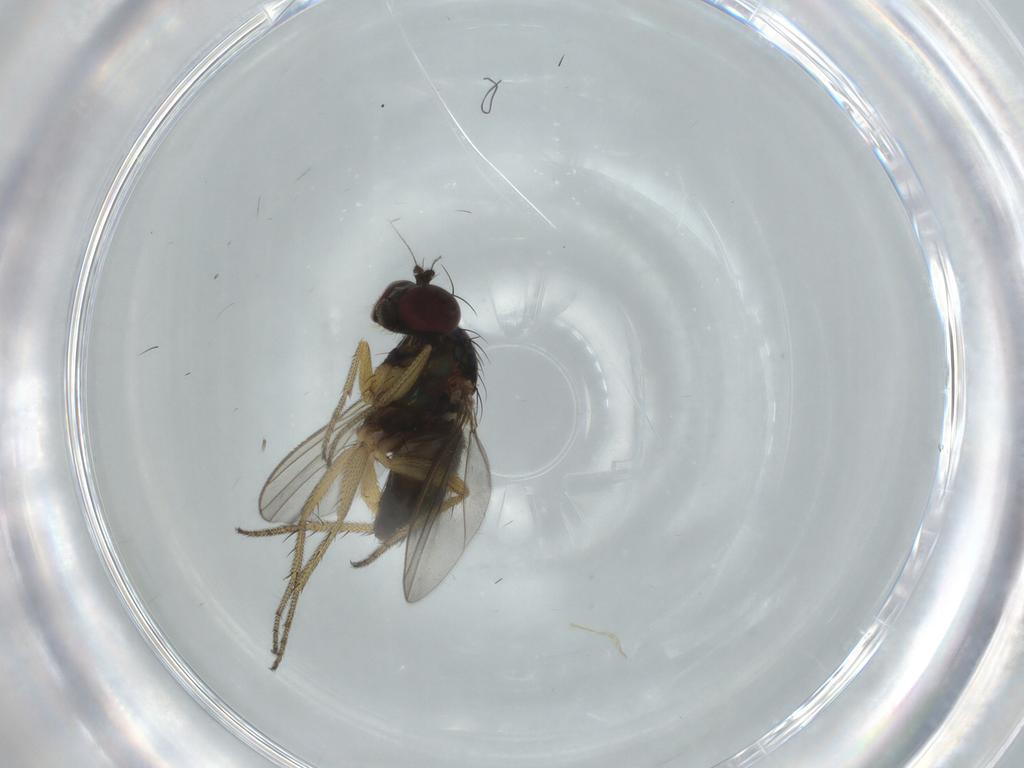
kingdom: Animalia
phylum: Arthropoda
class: Insecta
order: Diptera
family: Dolichopodidae
